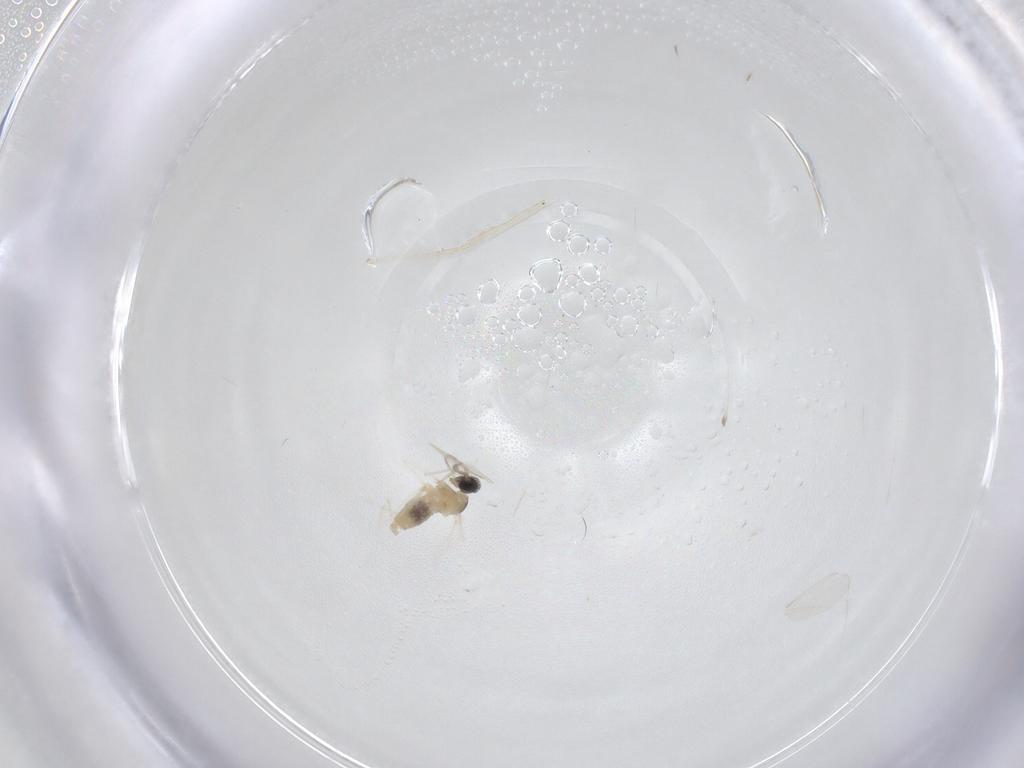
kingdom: Animalia
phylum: Arthropoda
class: Insecta
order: Diptera
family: Cecidomyiidae
